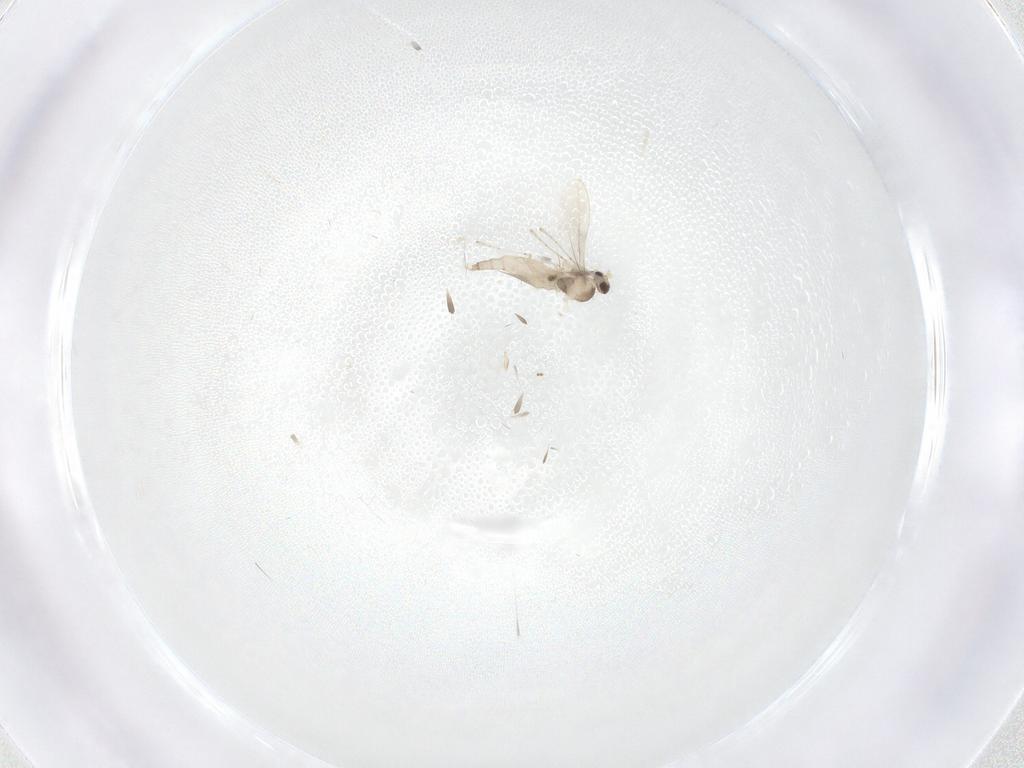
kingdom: Animalia
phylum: Arthropoda
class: Insecta
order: Diptera
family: Cecidomyiidae
